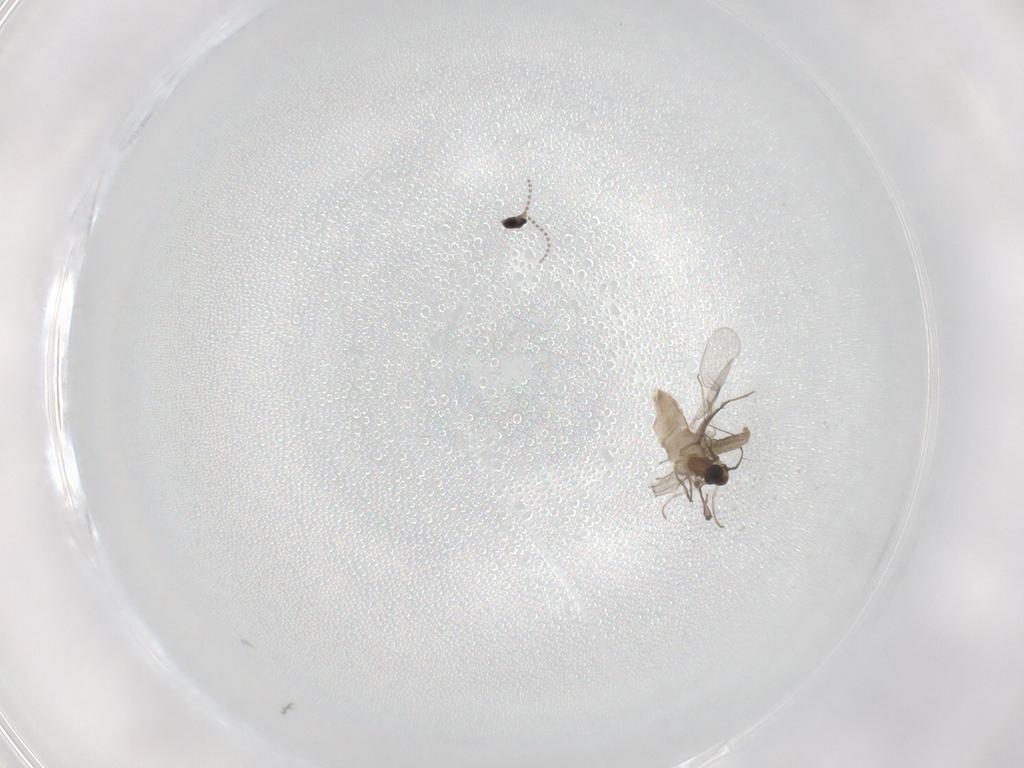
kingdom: Animalia
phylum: Arthropoda
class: Insecta
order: Diptera
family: Chironomidae
